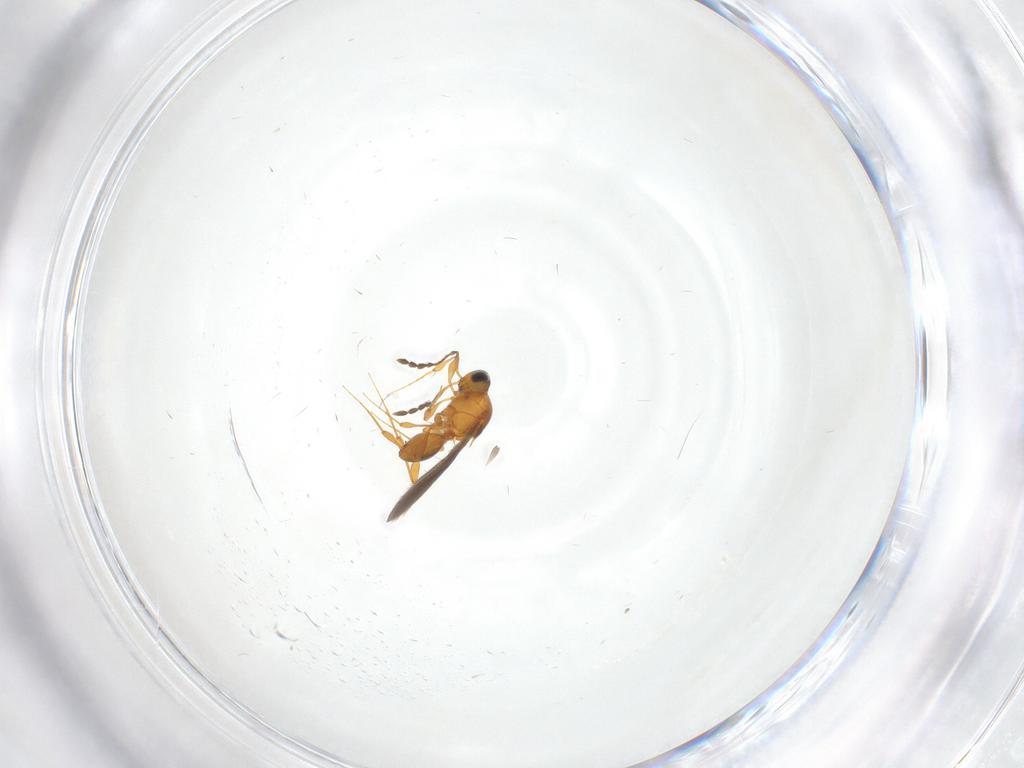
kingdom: Animalia
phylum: Arthropoda
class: Insecta
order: Hymenoptera
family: Platygastridae
